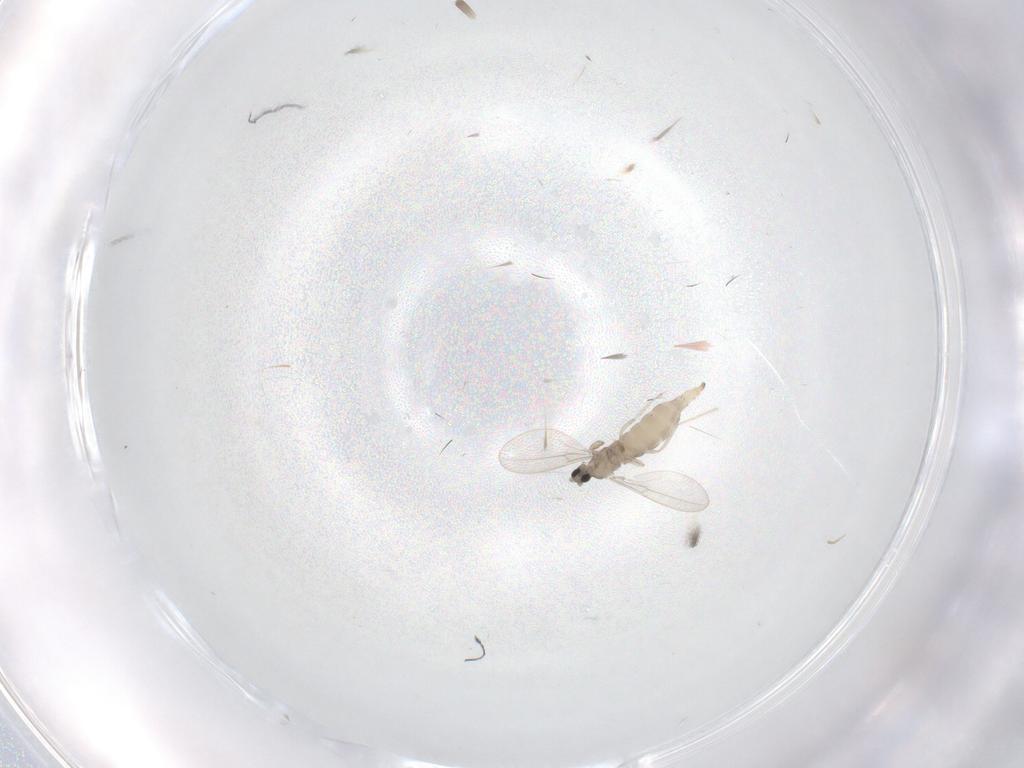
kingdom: Animalia
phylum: Arthropoda
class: Insecta
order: Diptera
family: Cecidomyiidae
